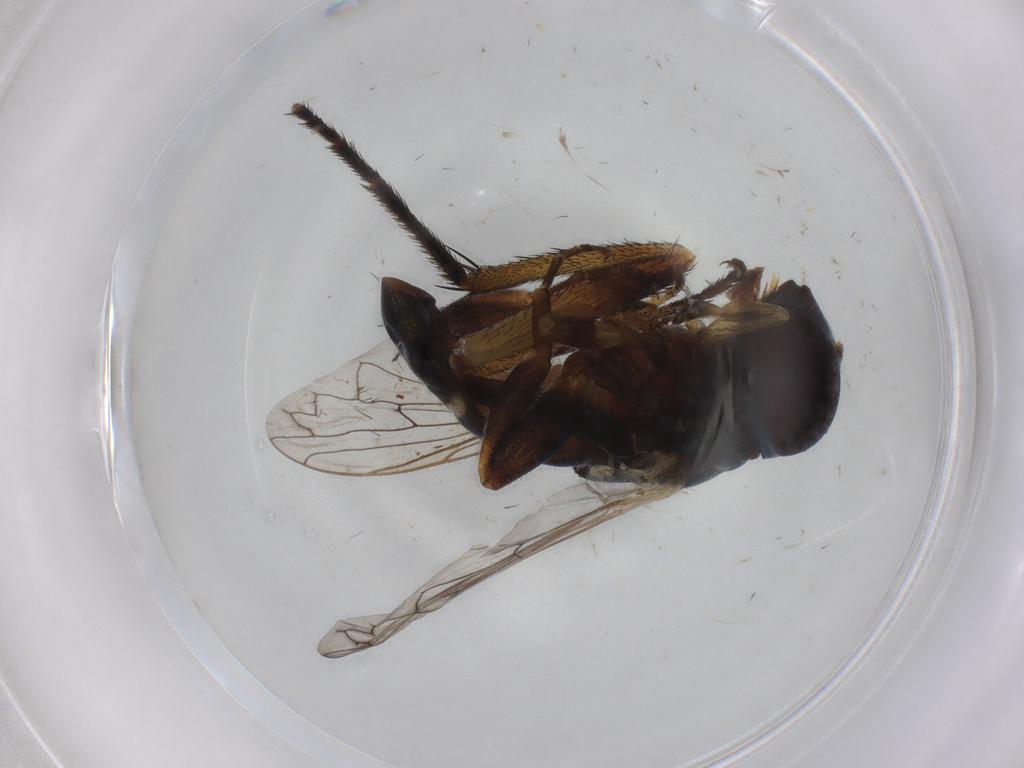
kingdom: Animalia
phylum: Arthropoda
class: Insecta
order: Diptera
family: Syrphidae
